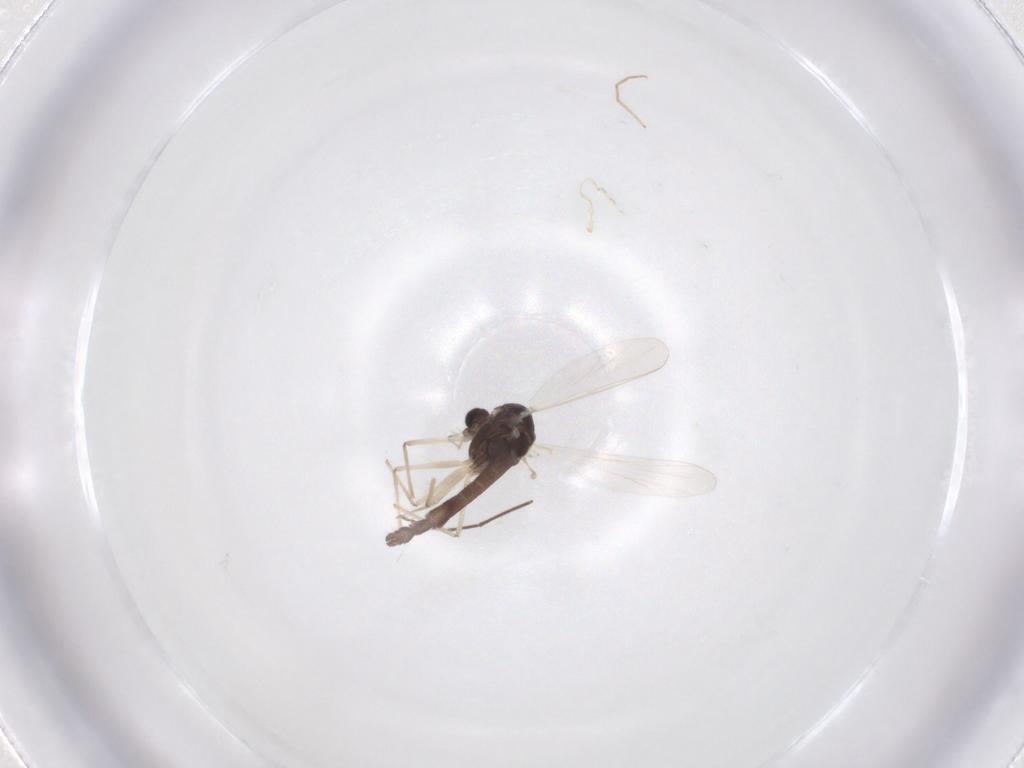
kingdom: Animalia
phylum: Arthropoda
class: Insecta
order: Diptera
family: Chironomidae
